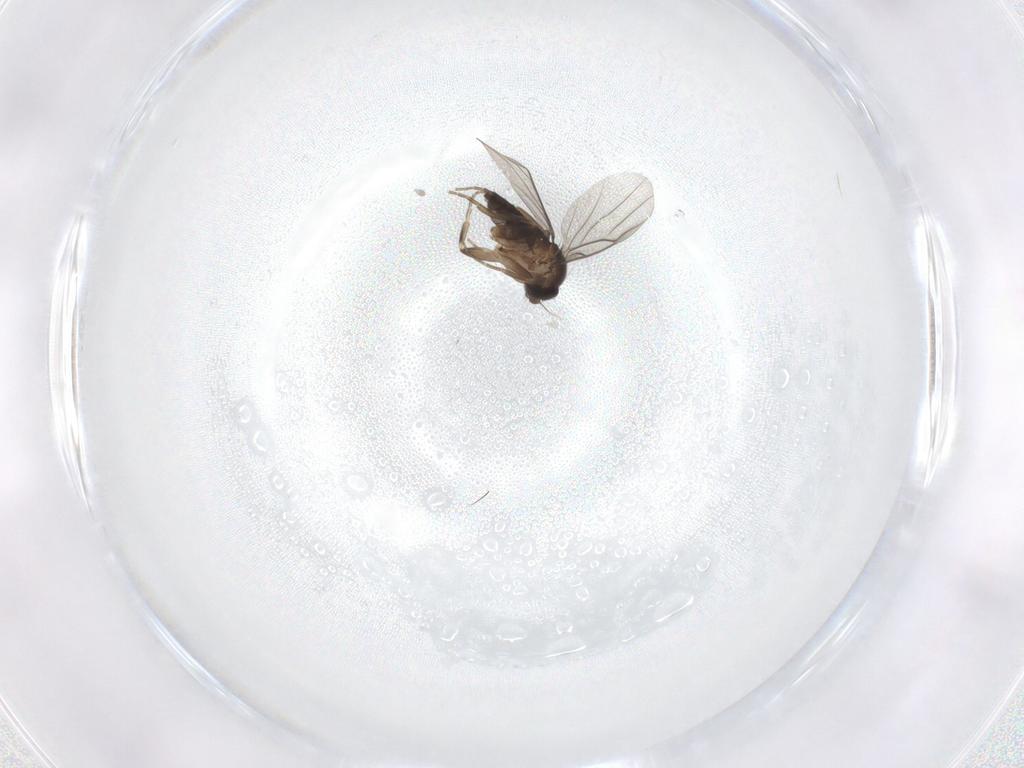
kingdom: Animalia
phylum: Arthropoda
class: Insecta
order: Diptera
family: Phoridae
